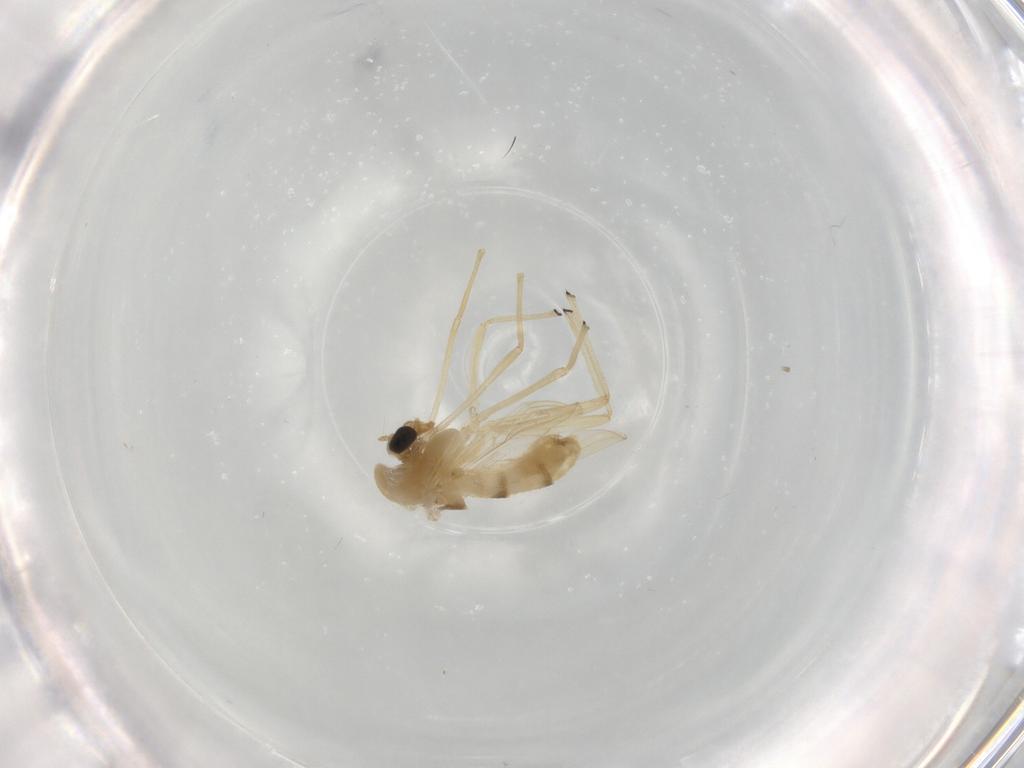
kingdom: Animalia
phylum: Arthropoda
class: Insecta
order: Diptera
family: Chironomidae
